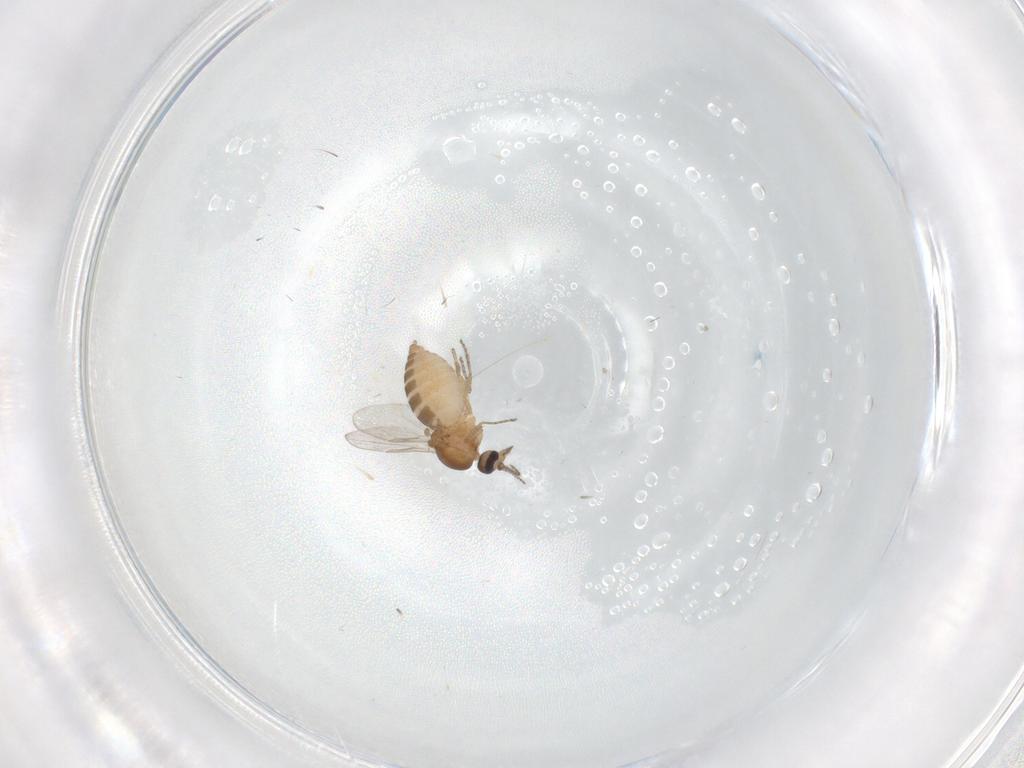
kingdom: Animalia
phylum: Arthropoda
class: Insecta
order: Diptera
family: Ceratopogonidae
